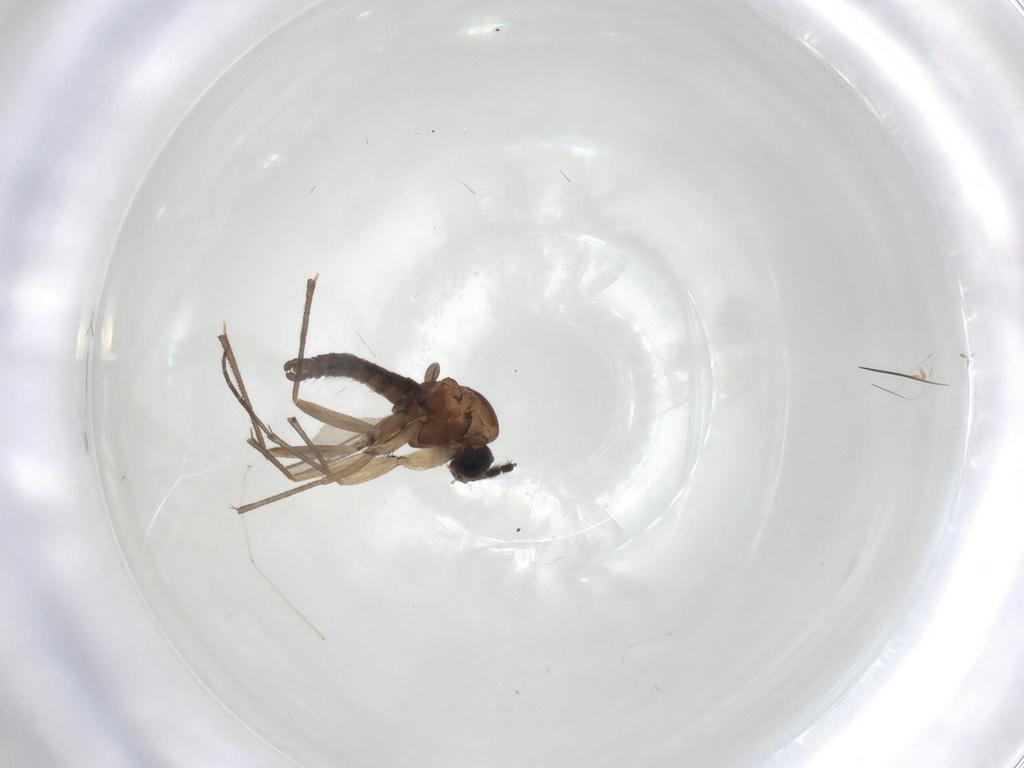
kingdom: Animalia
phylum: Arthropoda
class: Insecta
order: Diptera
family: Sciaridae
